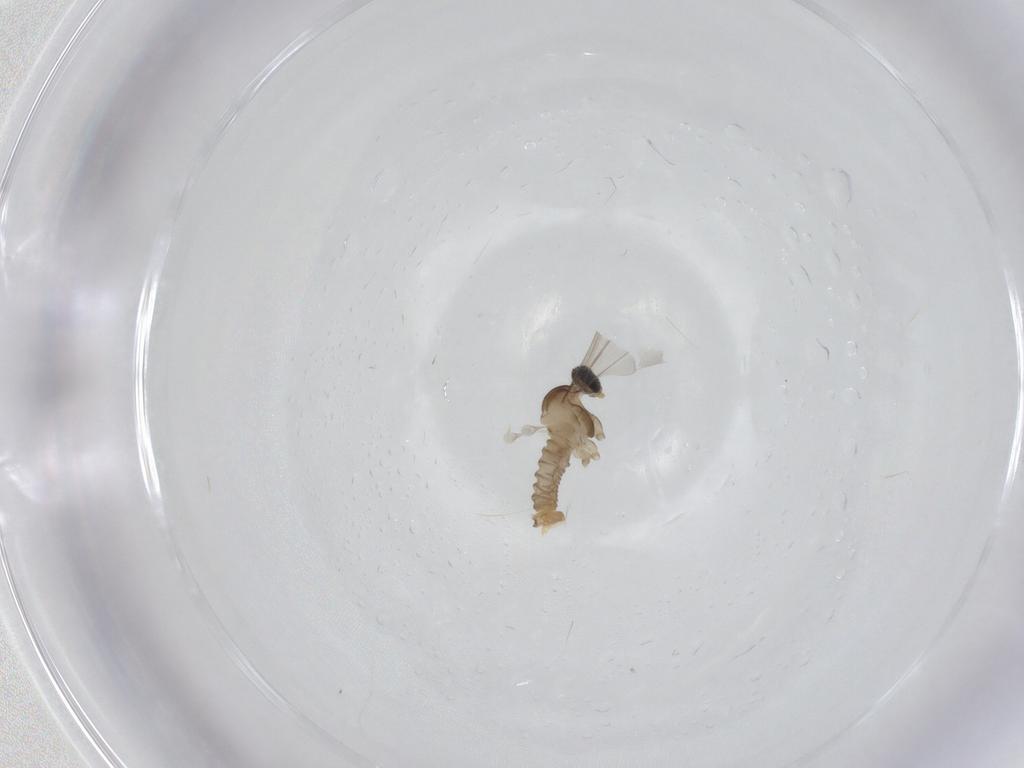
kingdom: Animalia
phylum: Arthropoda
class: Insecta
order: Diptera
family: Cecidomyiidae
